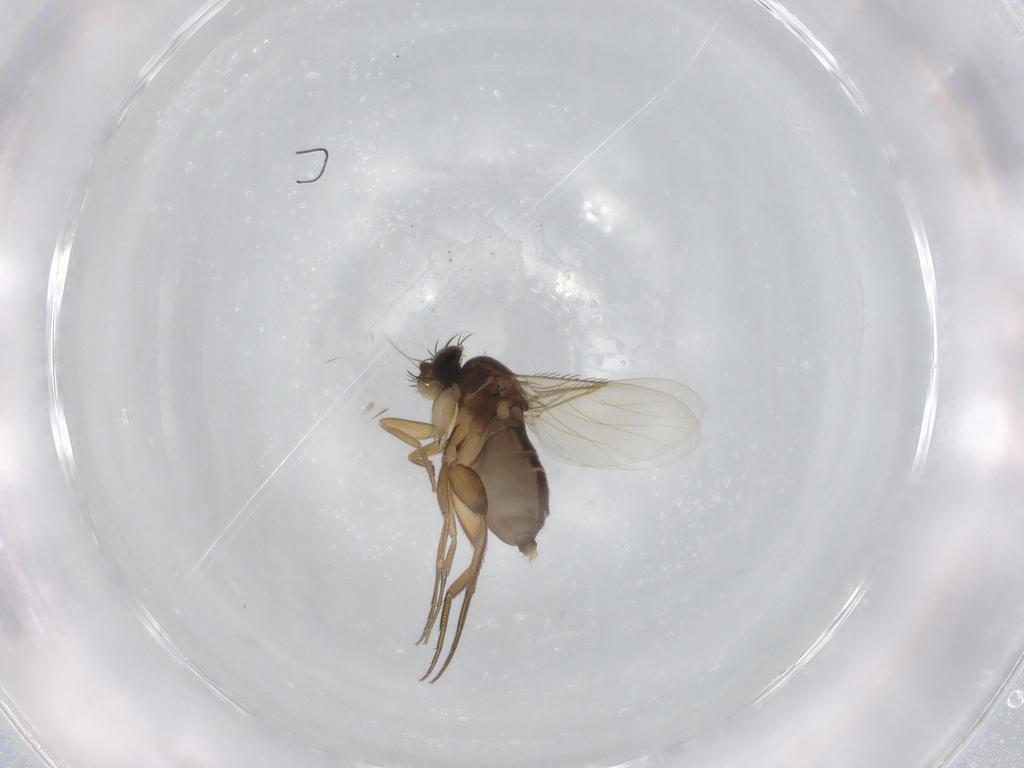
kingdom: Animalia
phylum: Arthropoda
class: Insecta
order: Diptera
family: Phoridae
